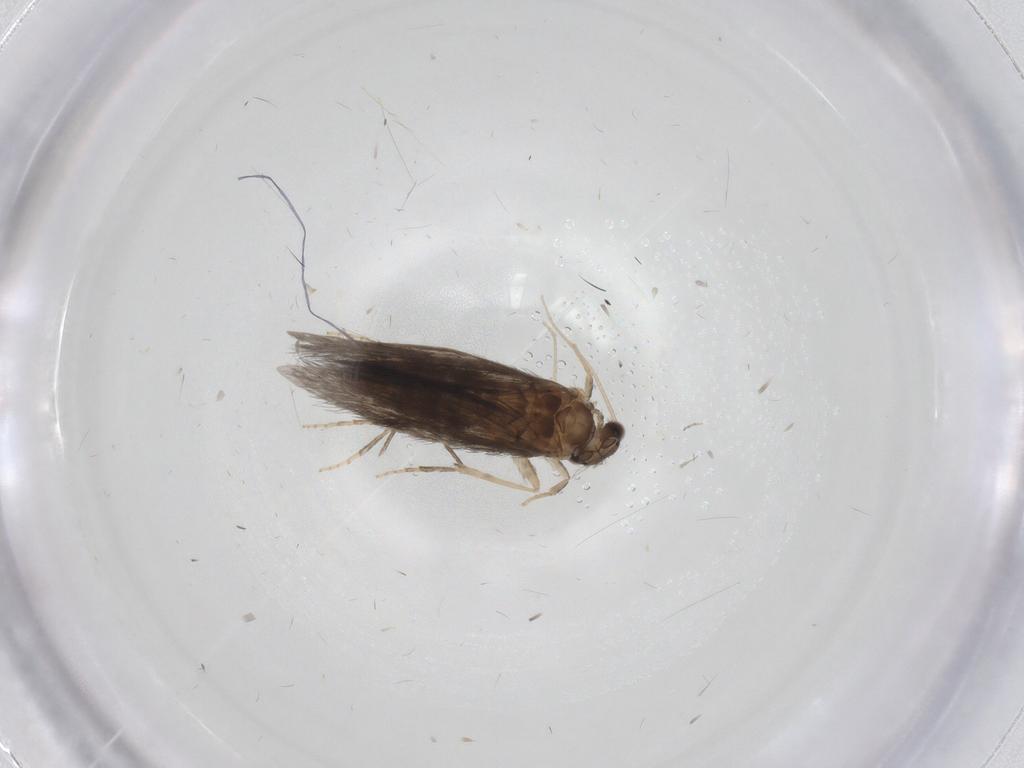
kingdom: Animalia
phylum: Arthropoda
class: Insecta
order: Trichoptera
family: Hydroptilidae
